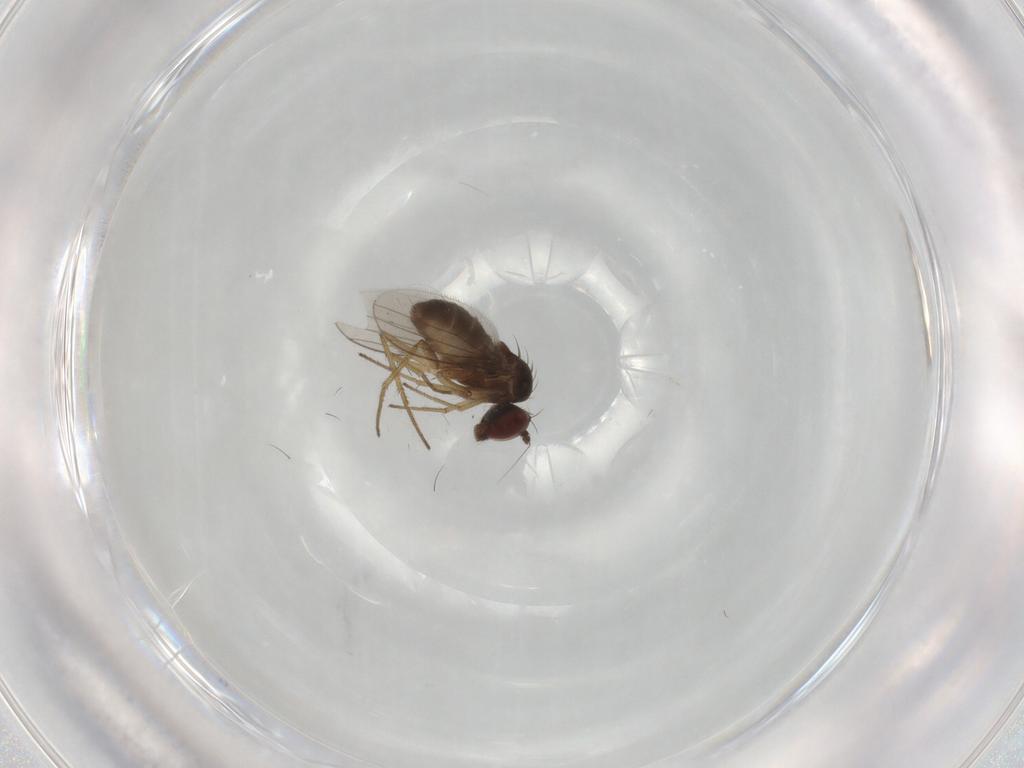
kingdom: Animalia
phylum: Arthropoda
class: Insecta
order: Diptera
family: Dolichopodidae
